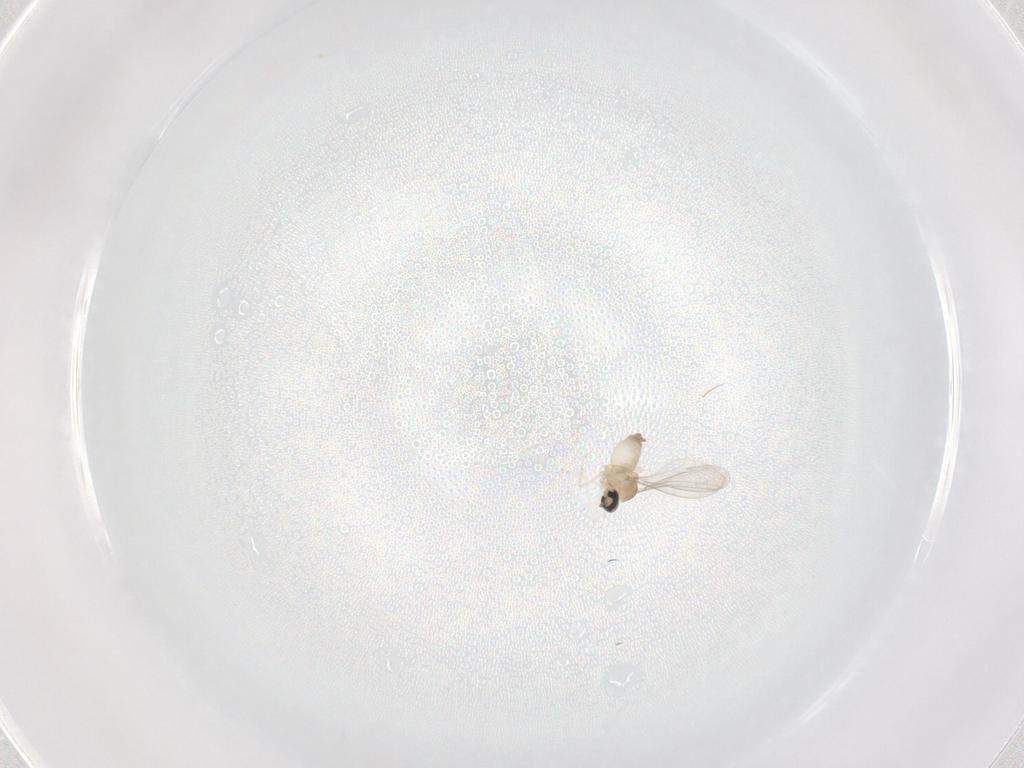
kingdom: Animalia
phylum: Arthropoda
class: Insecta
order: Diptera
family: Cecidomyiidae
